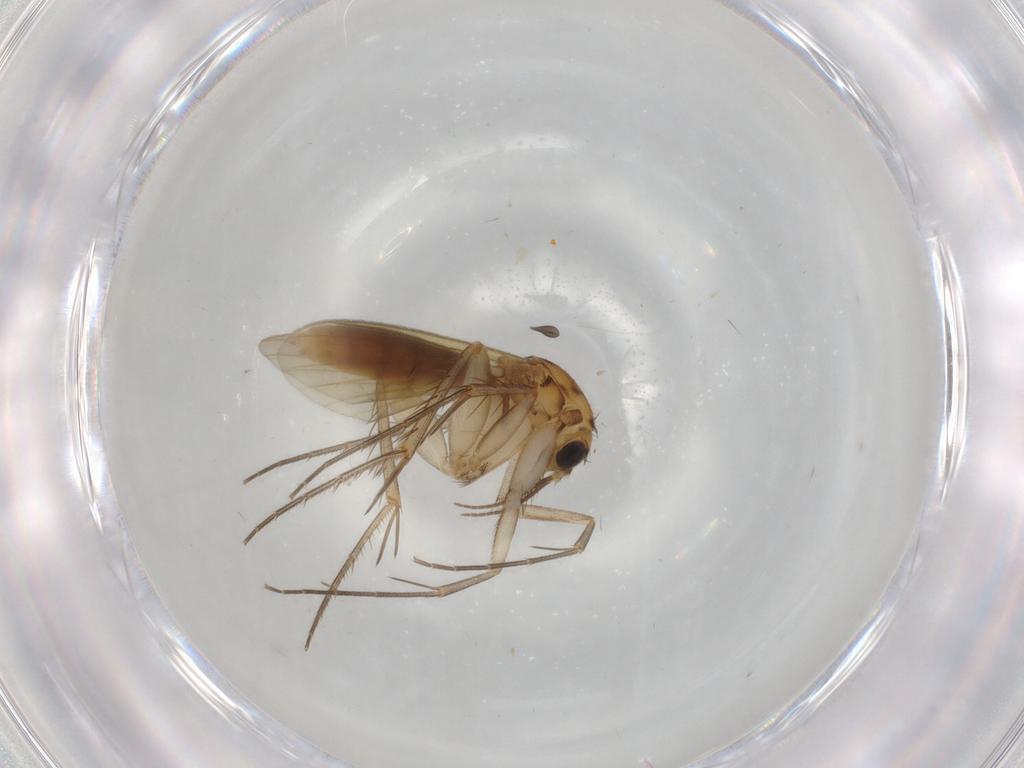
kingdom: Animalia
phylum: Arthropoda
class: Insecta
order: Diptera
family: Mycetophilidae
